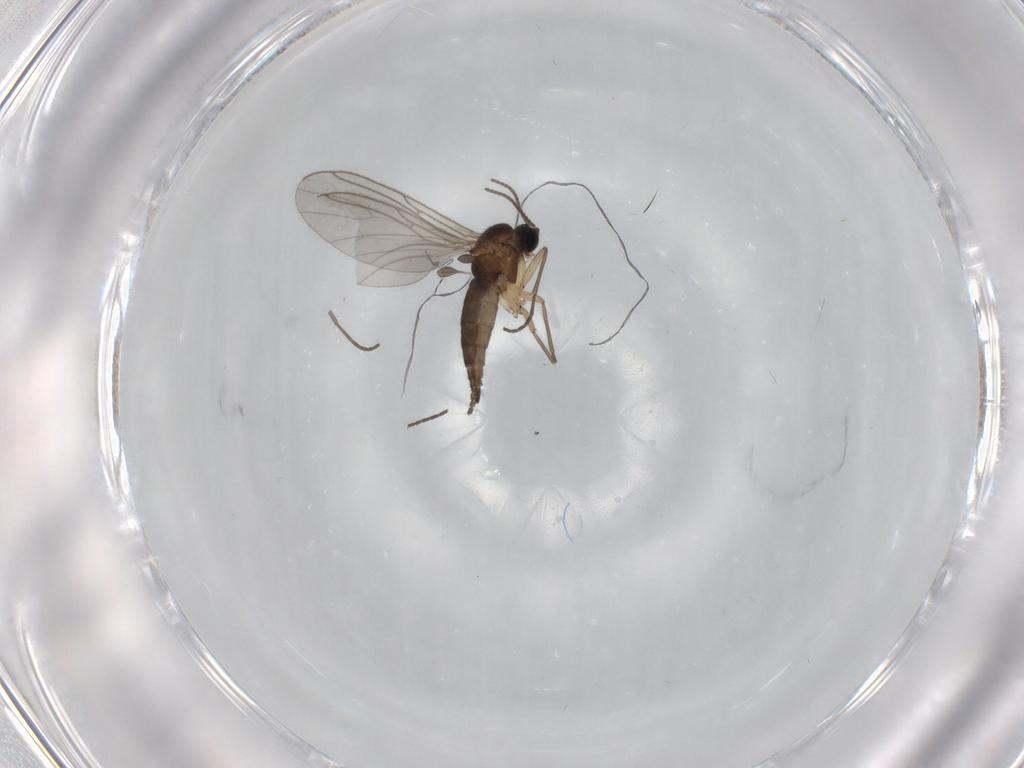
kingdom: Animalia
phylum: Arthropoda
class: Insecta
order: Diptera
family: Sciaridae
